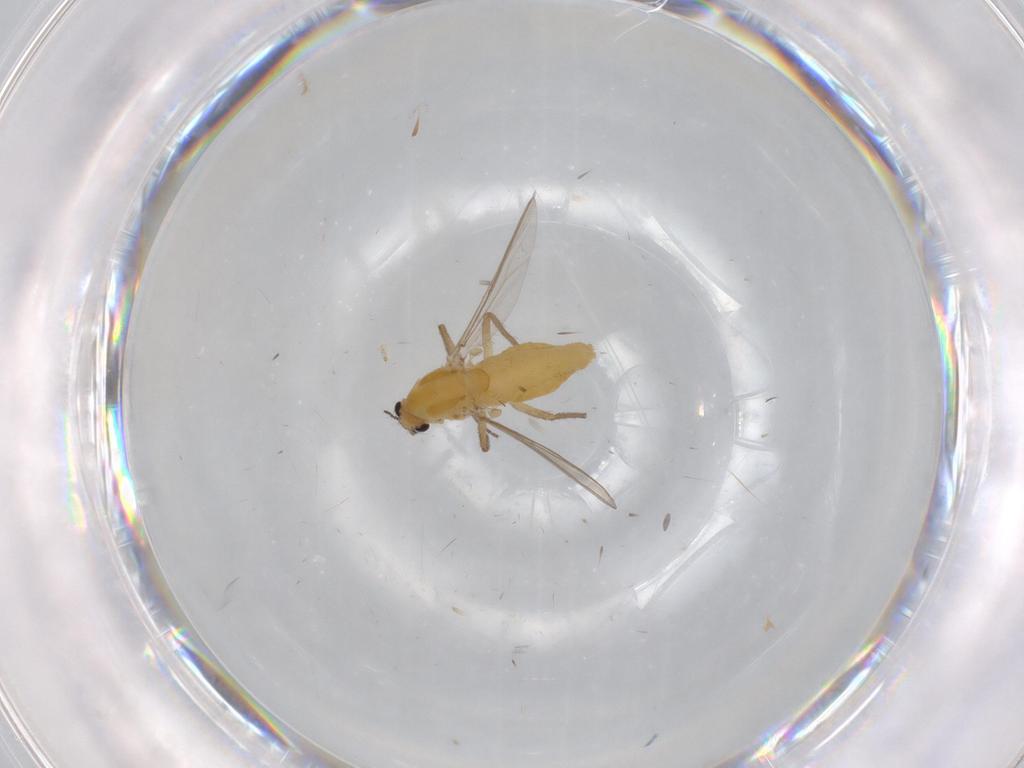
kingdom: Animalia
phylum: Arthropoda
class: Insecta
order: Diptera
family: Chironomidae
